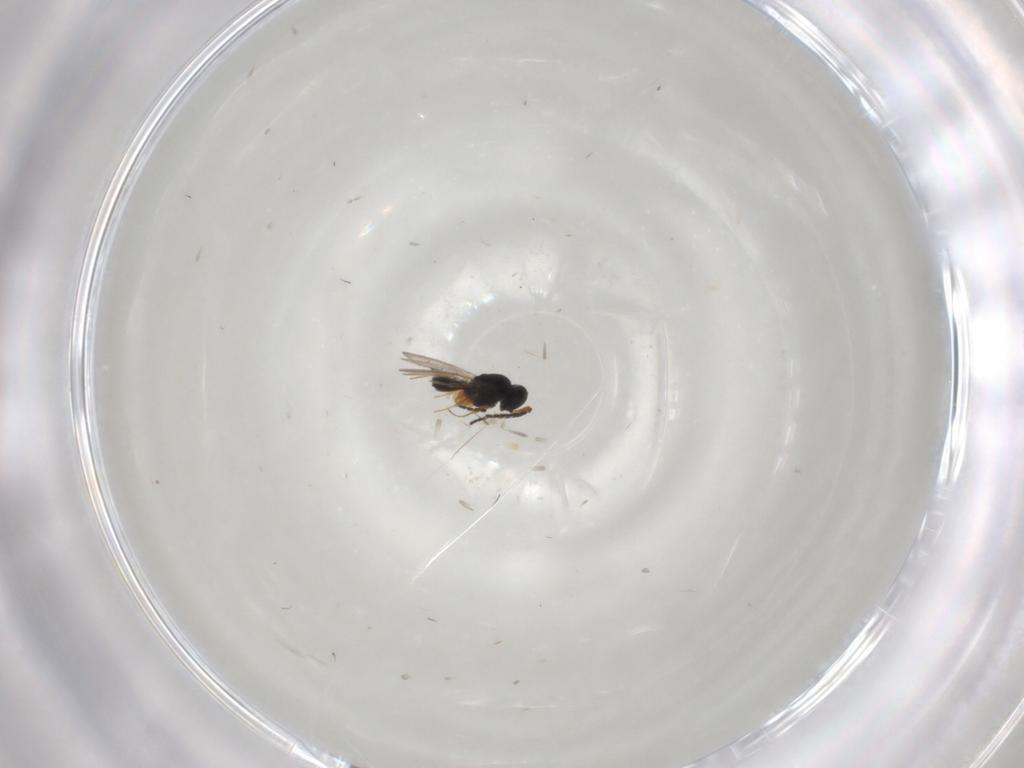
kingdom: Animalia
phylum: Arthropoda
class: Insecta
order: Hymenoptera
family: Scelionidae
